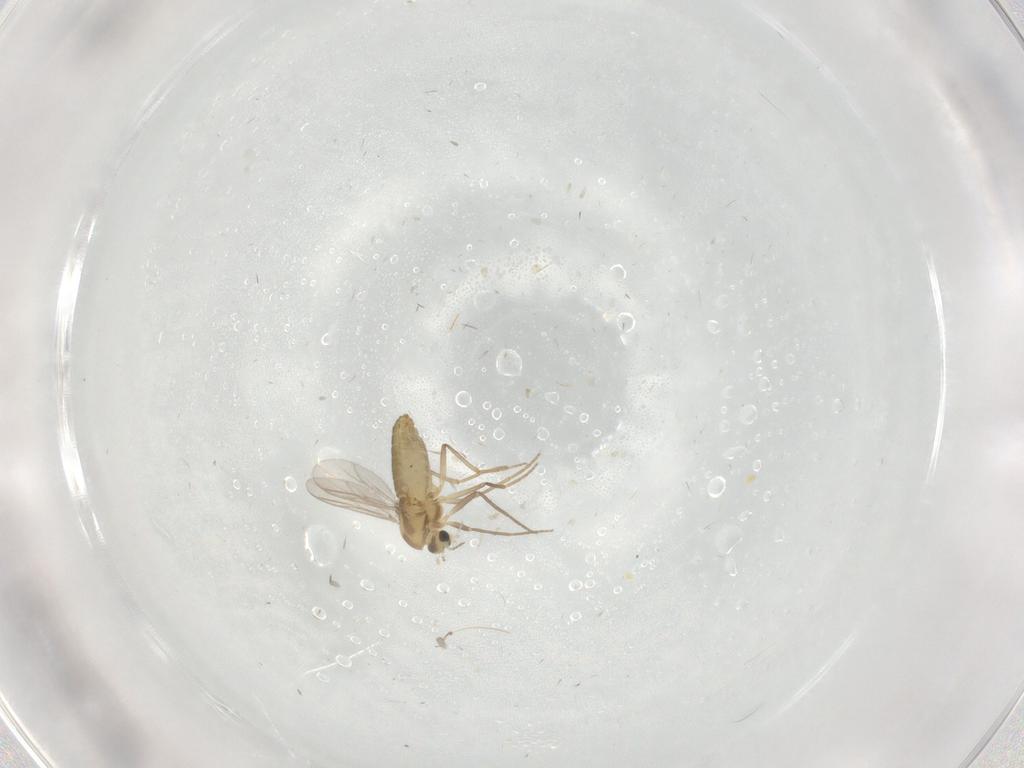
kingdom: Animalia
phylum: Arthropoda
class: Insecta
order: Diptera
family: Chironomidae
